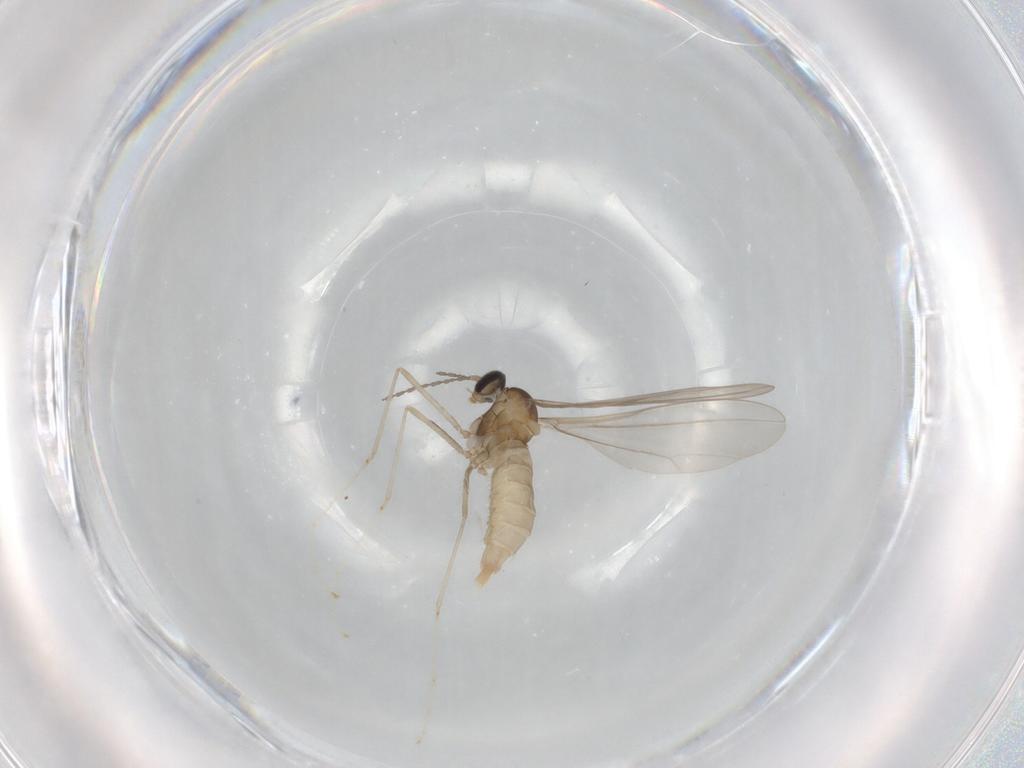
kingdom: Animalia
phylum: Arthropoda
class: Insecta
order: Diptera
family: Cecidomyiidae
